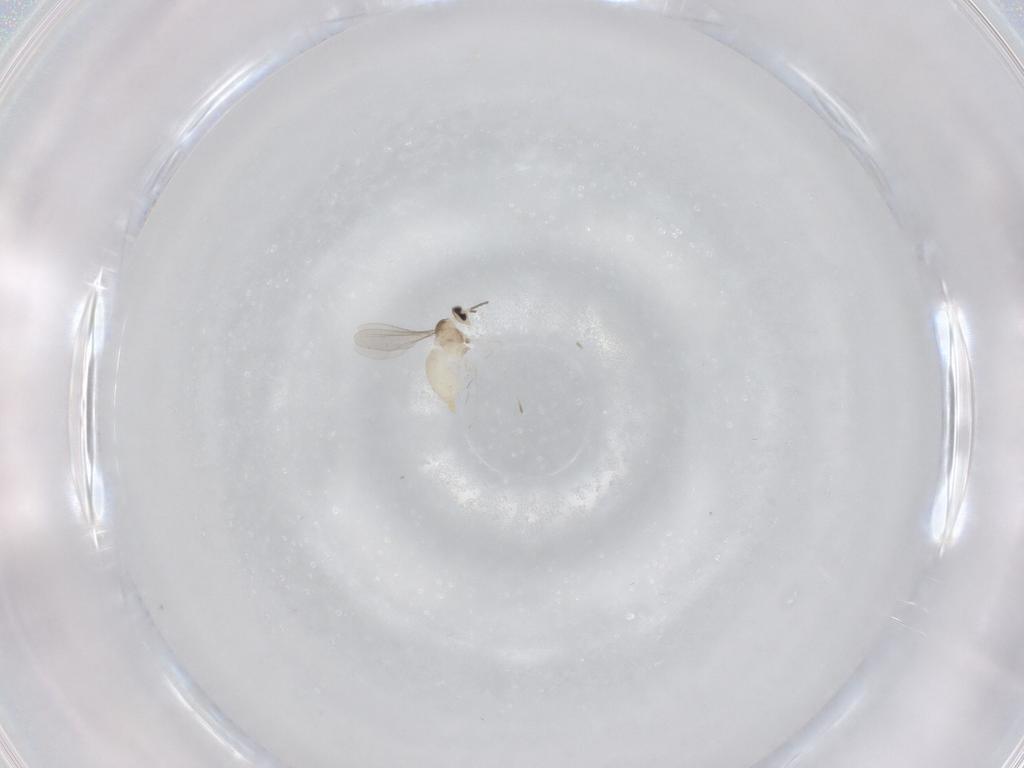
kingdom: Animalia
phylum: Arthropoda
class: Insecta
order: Diptera
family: Cecidomyiidae
